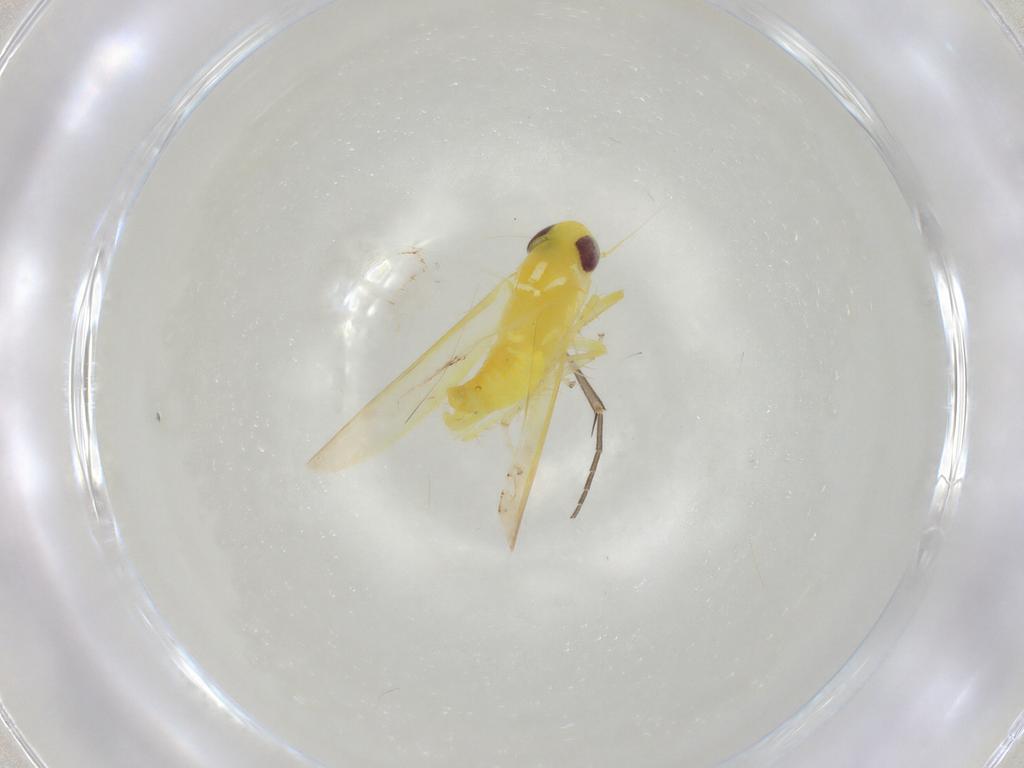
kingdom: Animalia
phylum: Arthropoda
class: Insecta
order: Hemiptera
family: Cicadellidae
